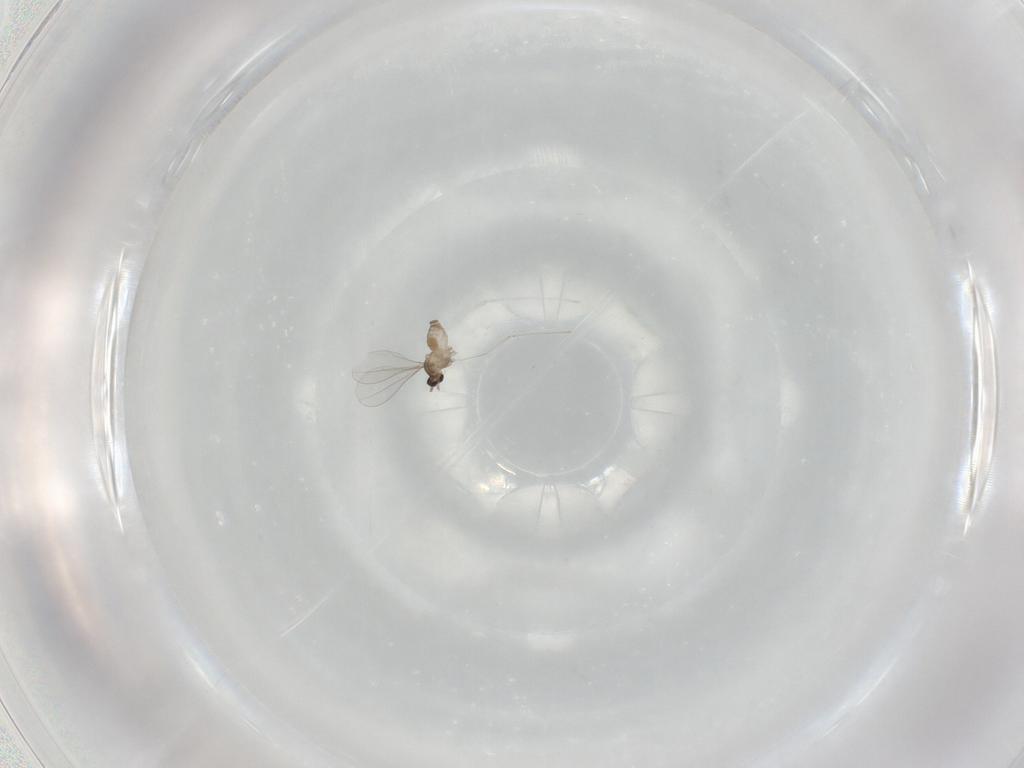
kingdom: Animalia
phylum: Arthropoda
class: Insecta
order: Diptera
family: Cecidomyiidae
